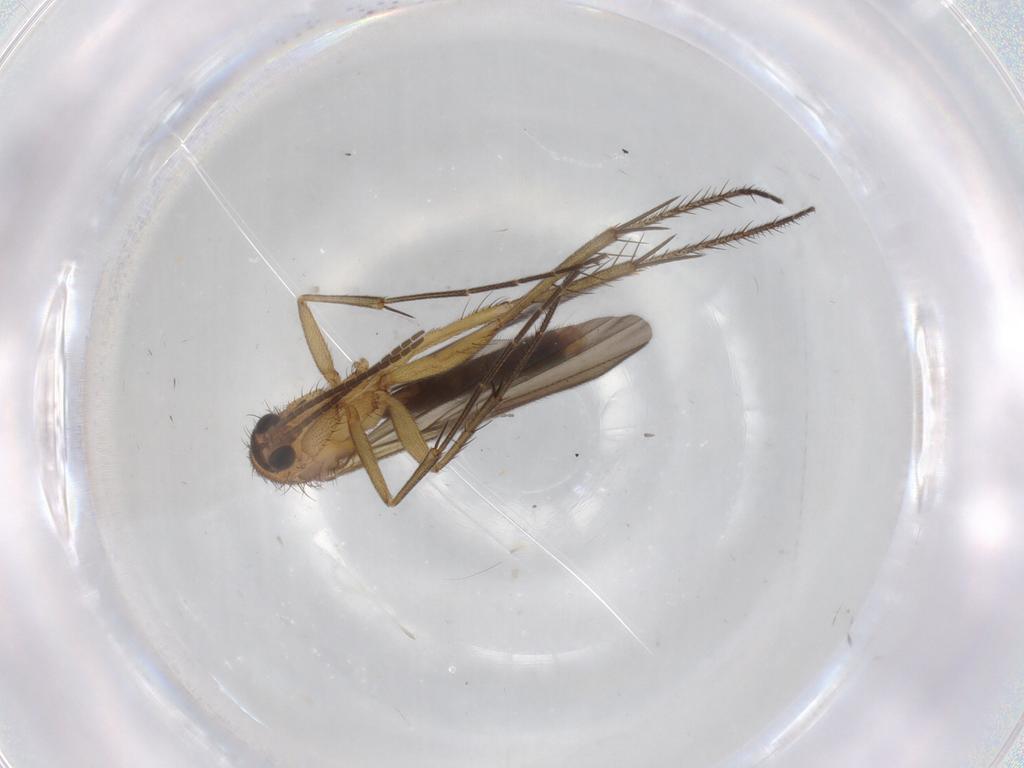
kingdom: Animalia
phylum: Arthropoda
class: Insecta
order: Diptera
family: Mycetophilidae
